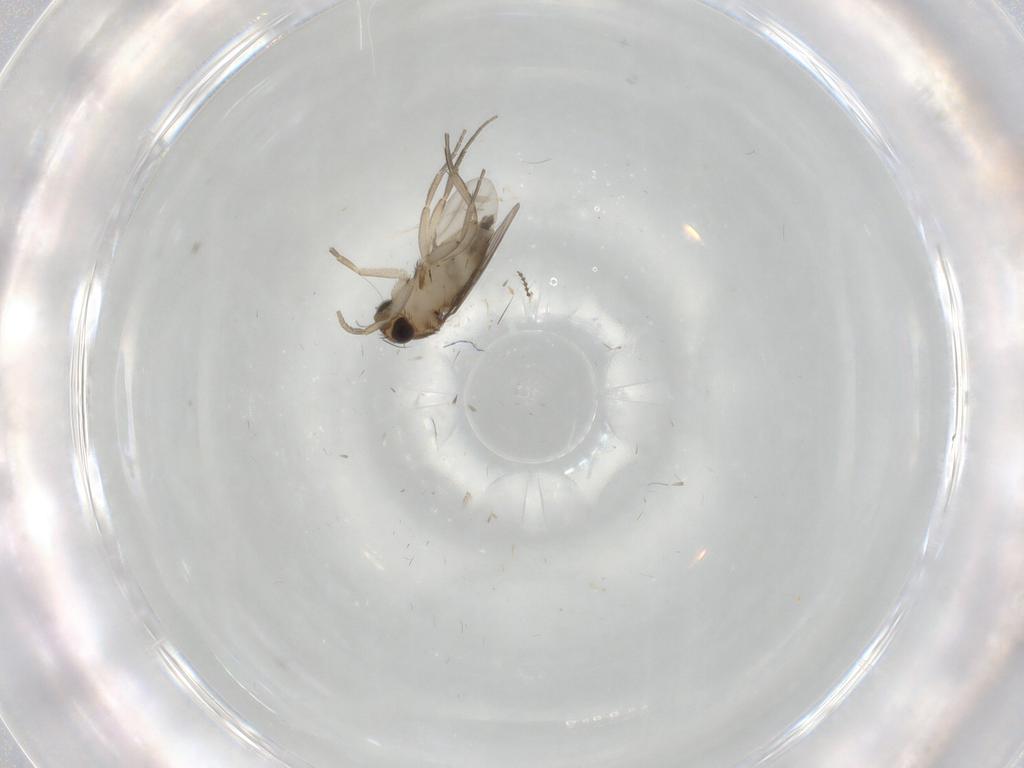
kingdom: Animalia
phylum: Arthropoda
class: Insecta
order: Diptera
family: Phoridae
